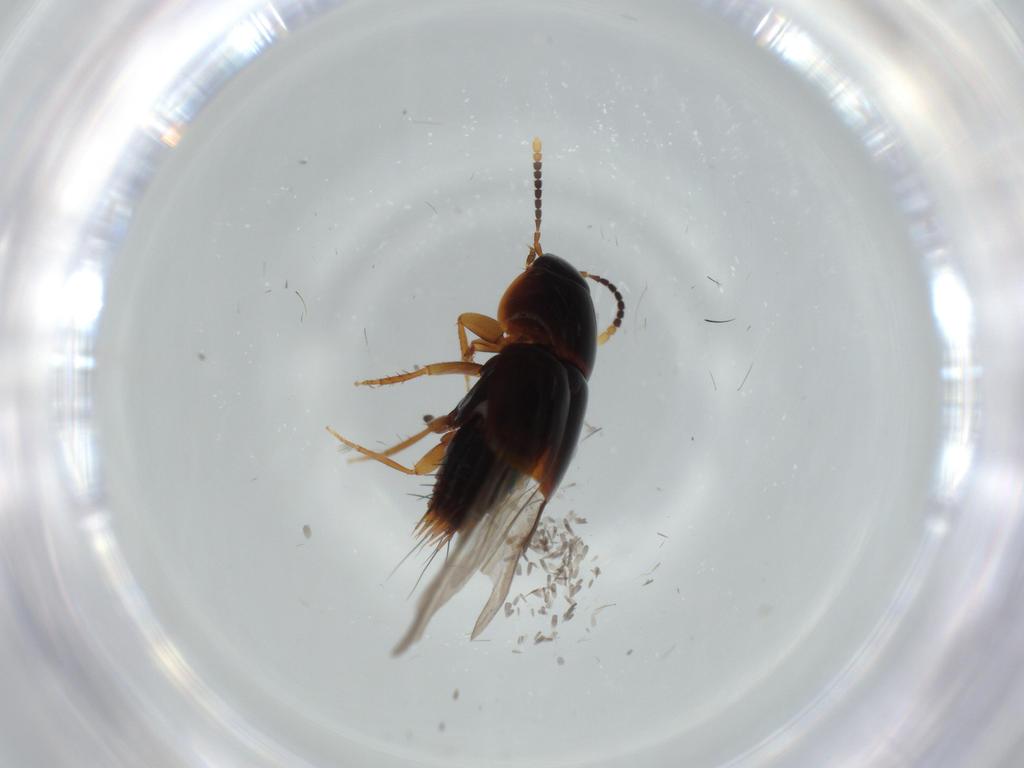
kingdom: Animalia
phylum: Arthropoda
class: Insecta
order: Coleoptera
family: Staphylinidae
